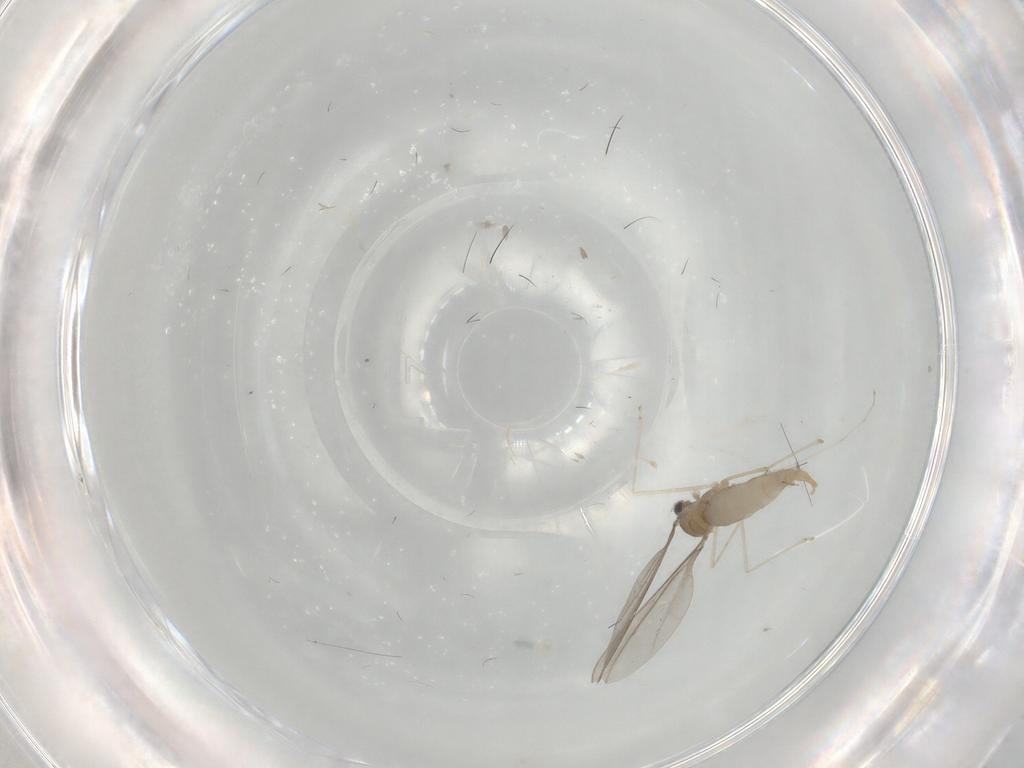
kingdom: Animalia
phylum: Arthropoda
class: Insecta
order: Diptera
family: Cecidomyiidae
